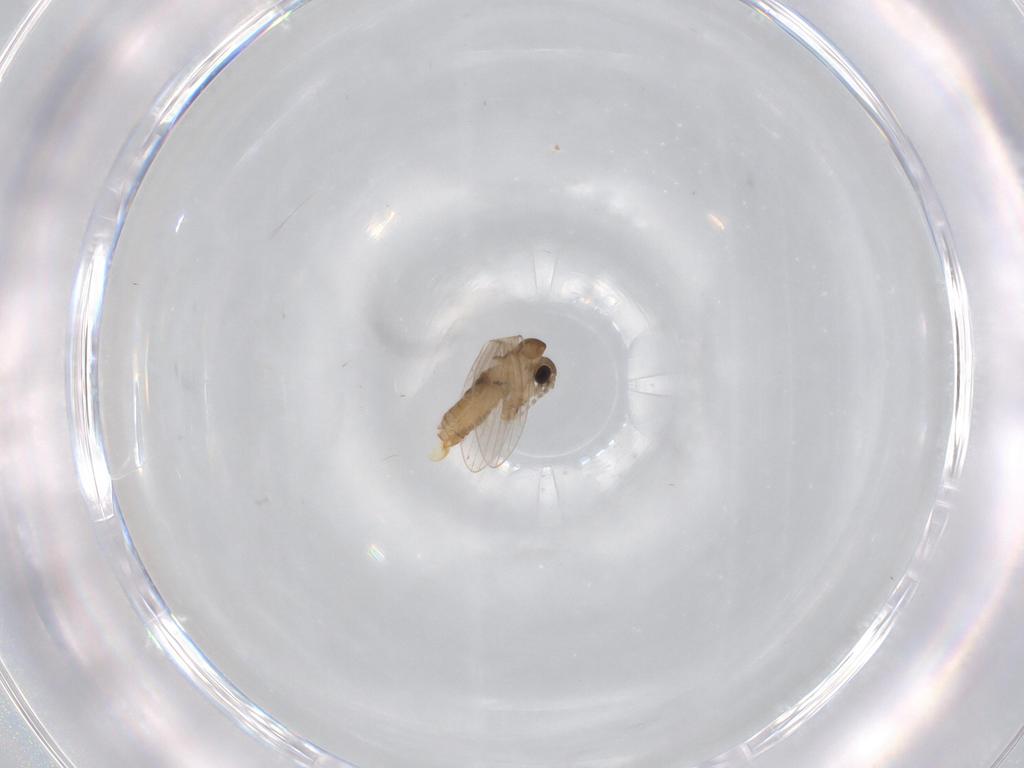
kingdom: Animalia
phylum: Arthropoda
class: Insecta
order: Diptera
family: Psychodidae
